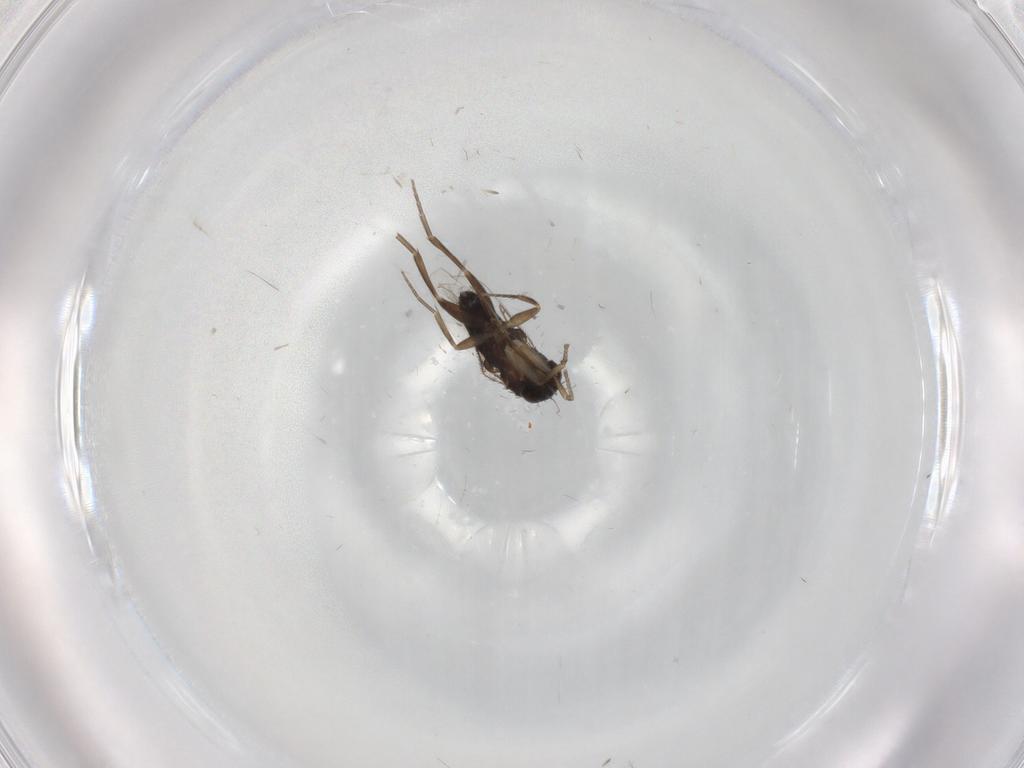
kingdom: Animalia
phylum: Arthropoda
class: Insecta
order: Diptera
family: Chironomidae
